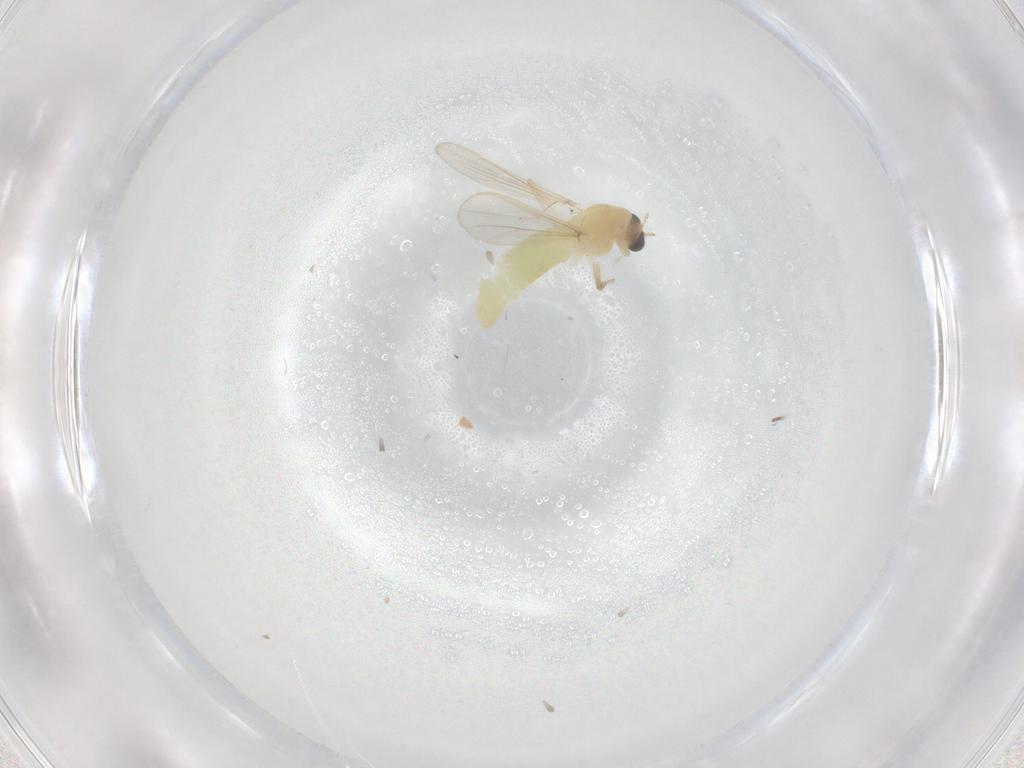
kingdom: Animalia
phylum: Arthropoda
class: Insecta
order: Diptera
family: Chironomidae
